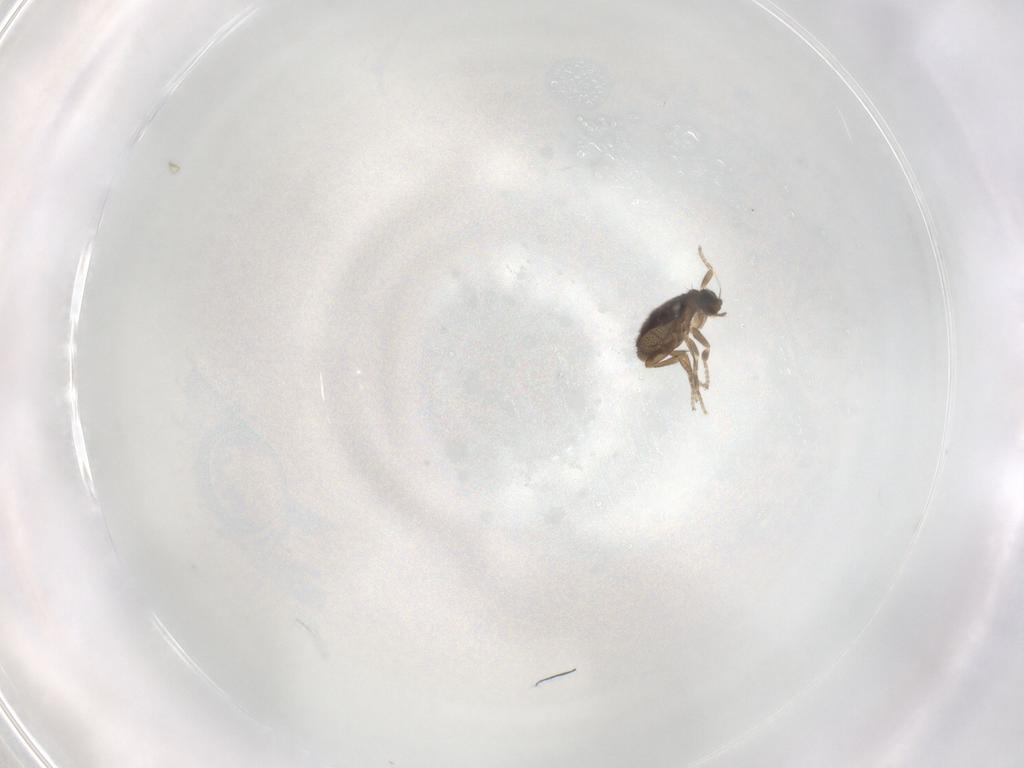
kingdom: Animalia
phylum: Arthropoda
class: Insecta
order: Diptera
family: Phoridae
